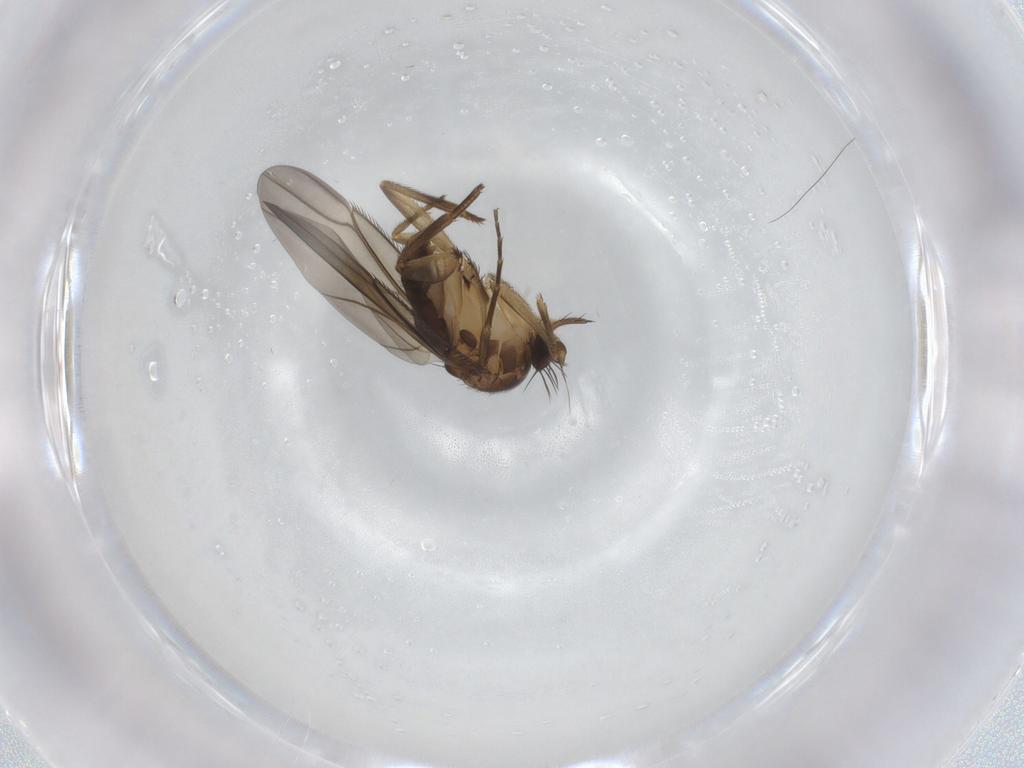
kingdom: Animalia
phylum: Arthropoda
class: Insecta
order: Diptera
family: Phoridae
